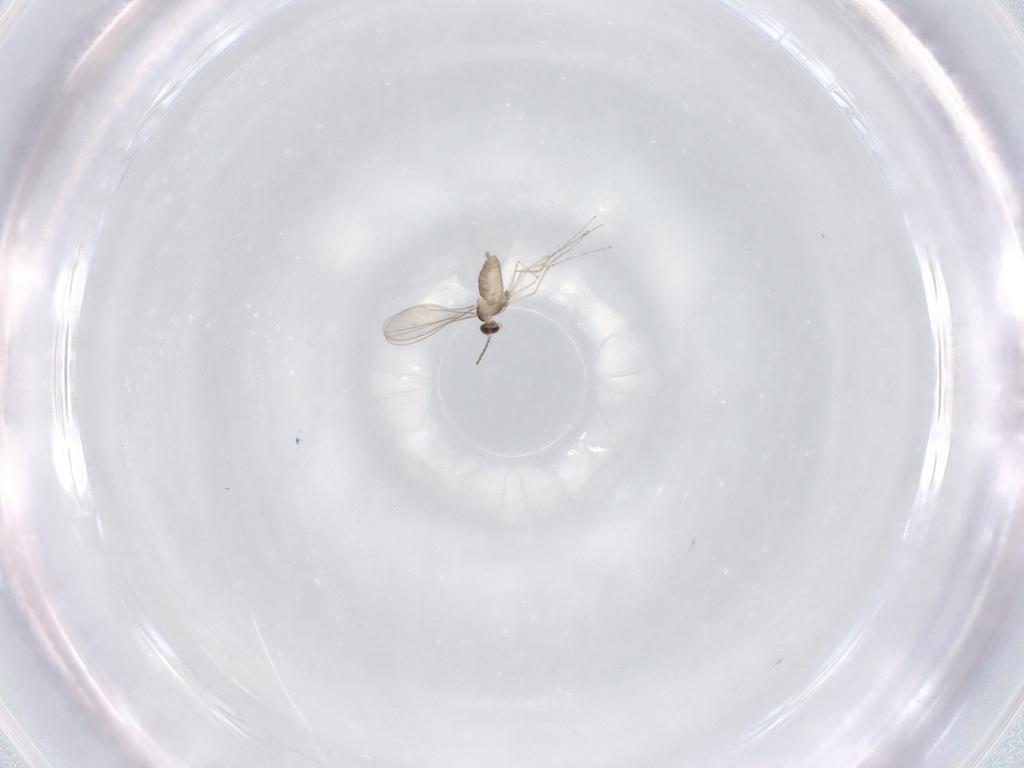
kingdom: Animalia
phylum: Arthropoda
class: Insecta
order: Diptera
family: Cecidomyiidae
